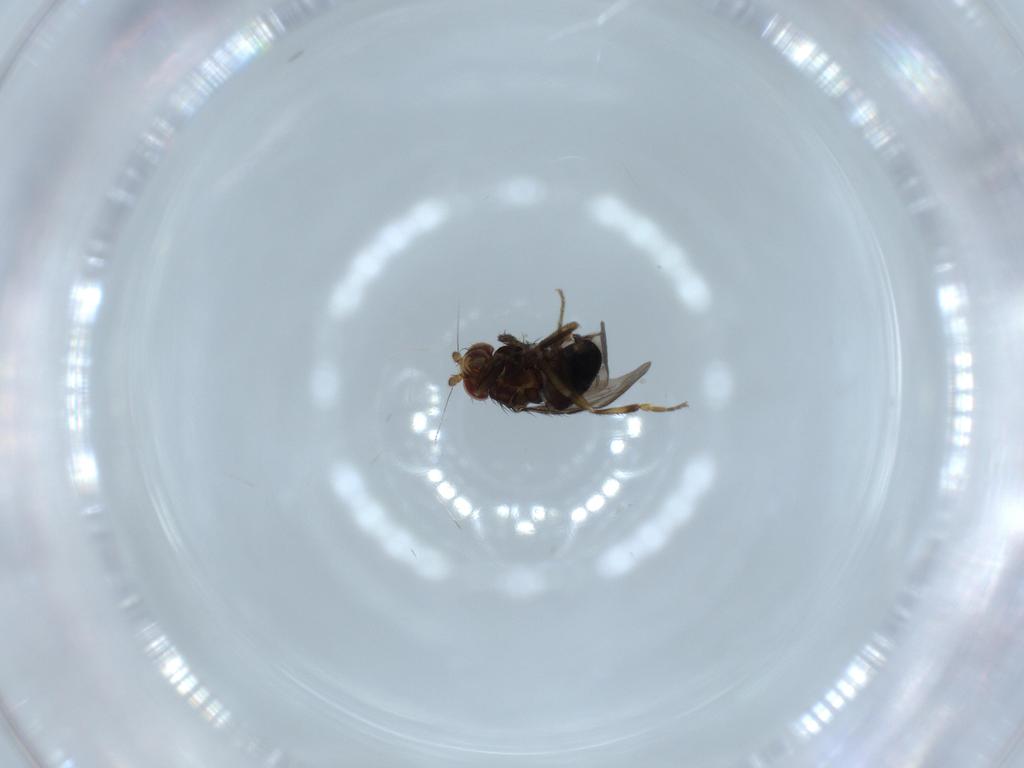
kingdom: Animalia
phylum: Arthropoda
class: Insecta
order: Diptera
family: Sphaeroceridae
